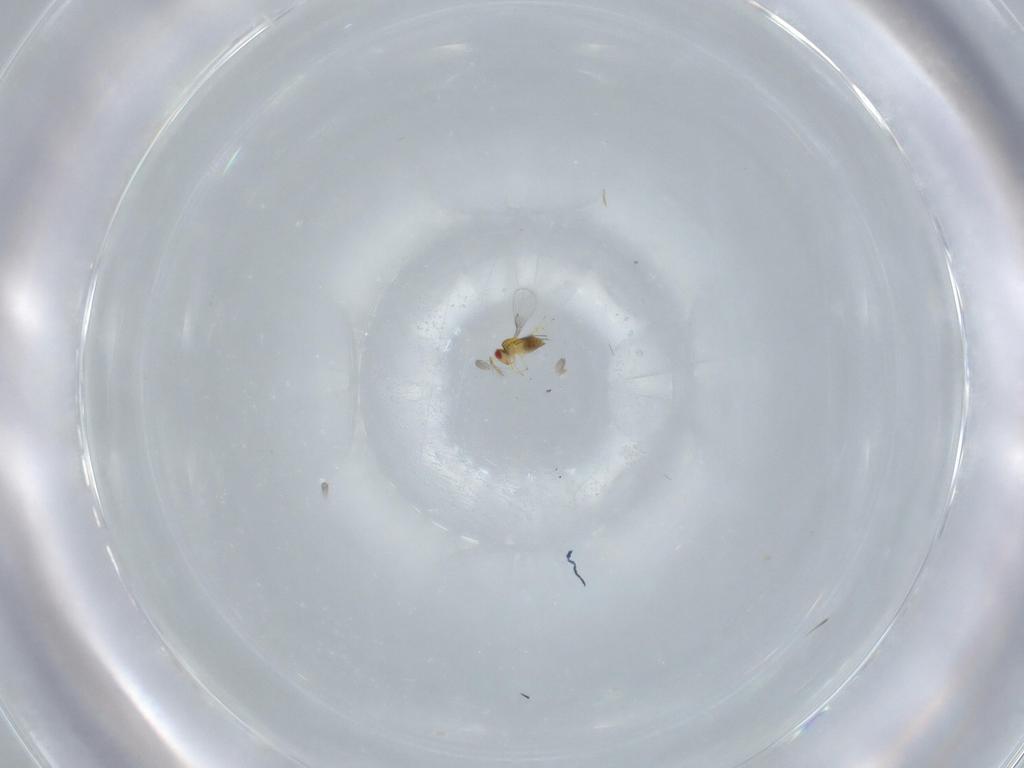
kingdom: Animalia
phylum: Arthropoda
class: Insecta
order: Hymenoptera
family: Trichogrammatidae
